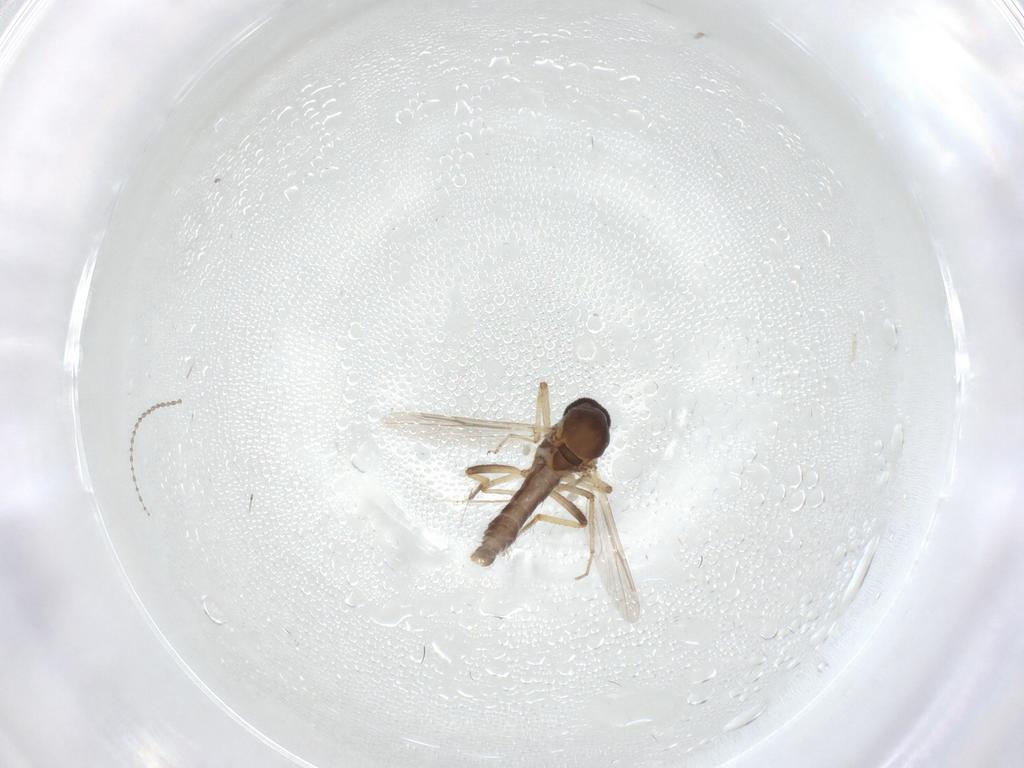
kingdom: Animalia
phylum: Arthropoda
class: Insecta
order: Diptera
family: Ceratopogonidae
